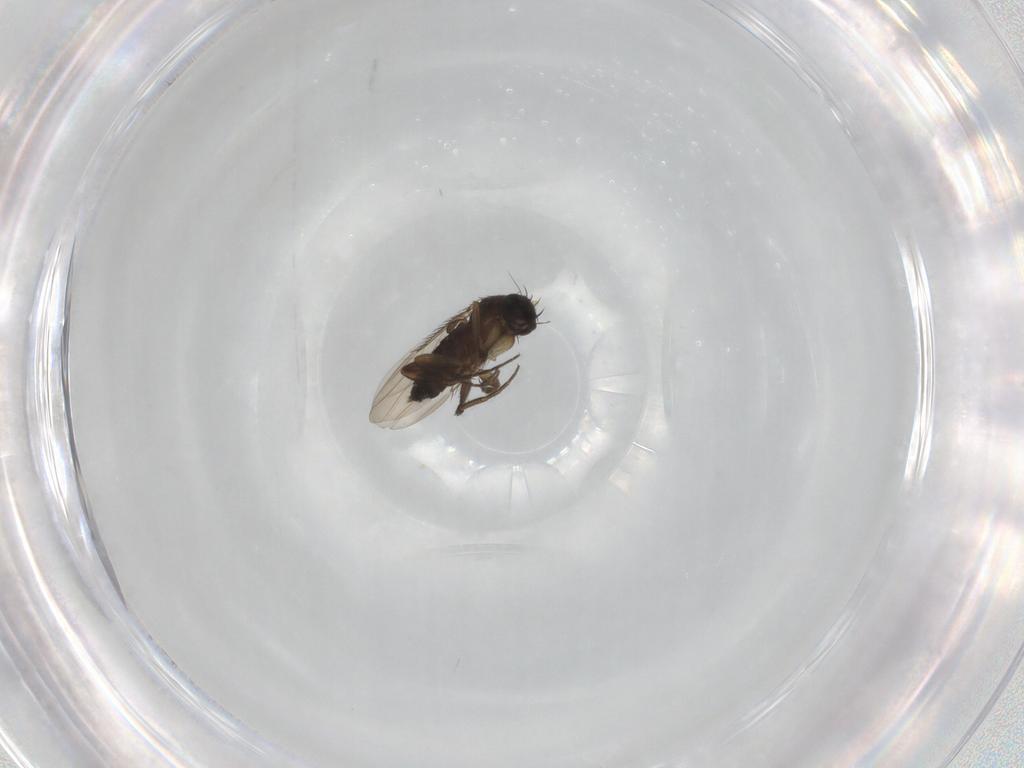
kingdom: Animalia
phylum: Arthropoda
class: Insecta
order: Diptera
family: Phoridae
